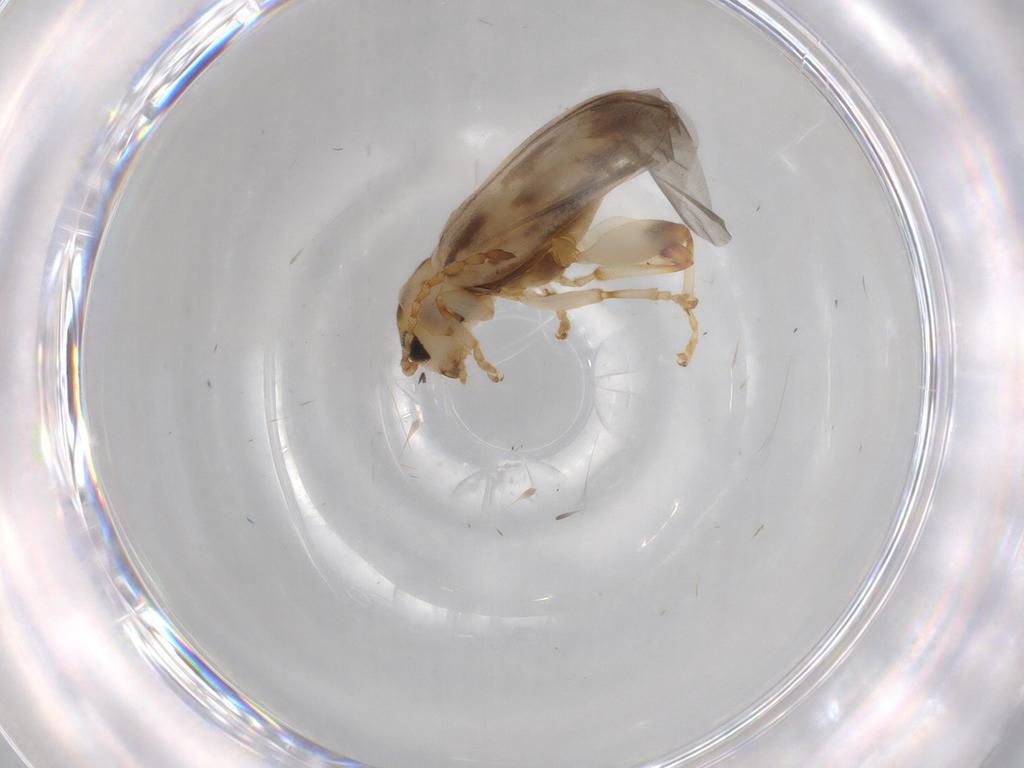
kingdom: Animalia
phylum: Arthropoda
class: Insecta
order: Coleoptera
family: Chrysomelidae
